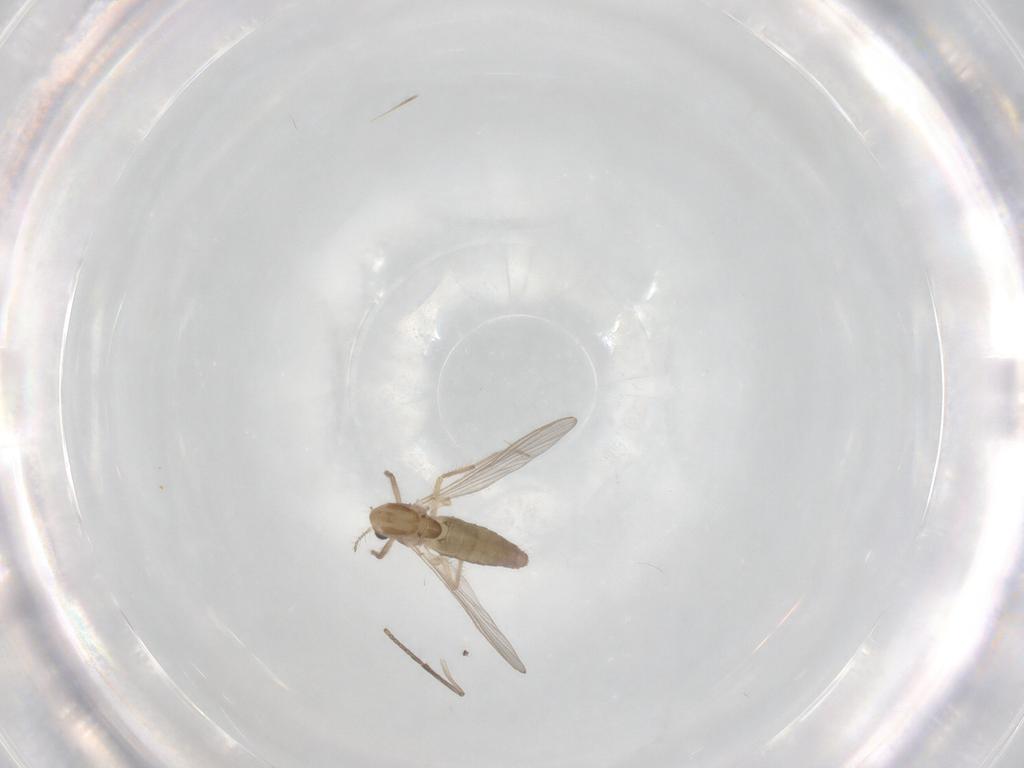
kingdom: Animalia
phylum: Arthropoda
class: Insecta
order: Diptera
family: Chironomidae
